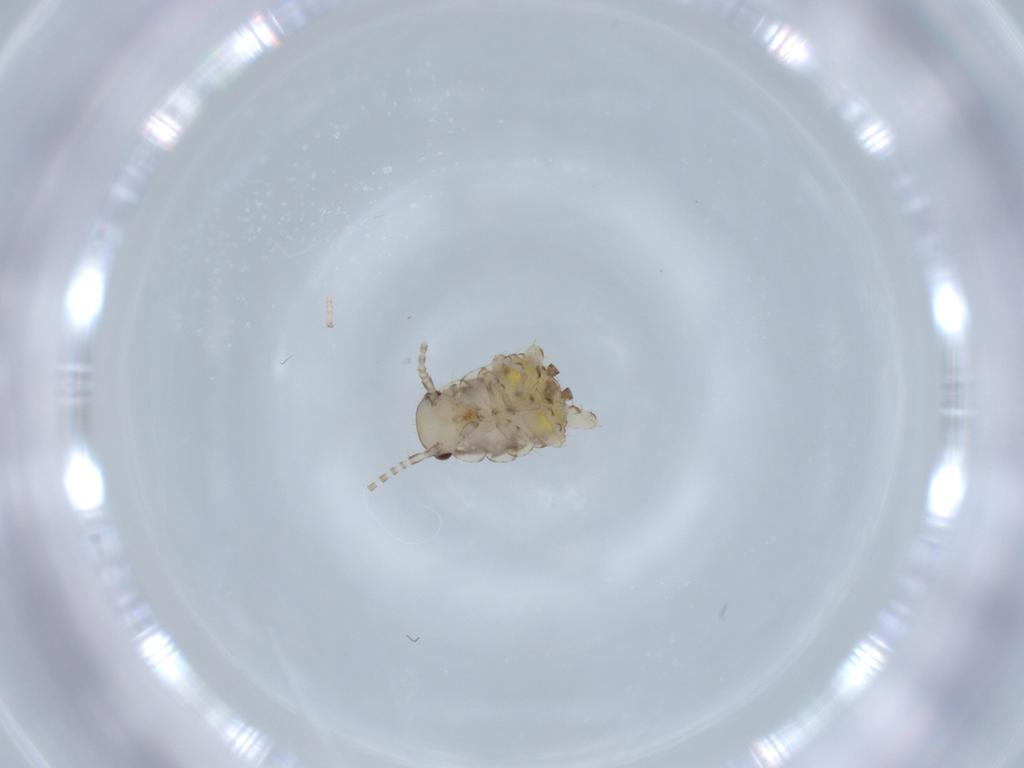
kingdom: Animalia
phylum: Arthropoda
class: Insecta
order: Blattodea
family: Ectobiidae
